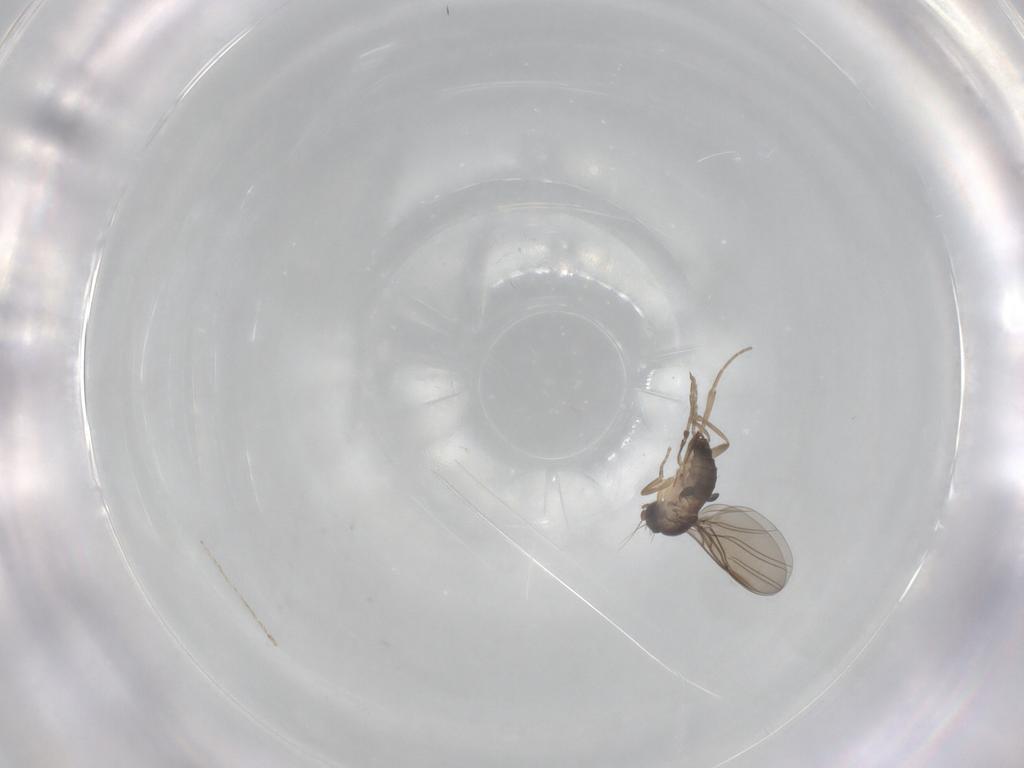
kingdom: Animalia
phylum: Arthropoda
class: Insecta
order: Diptera
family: Phoridae
